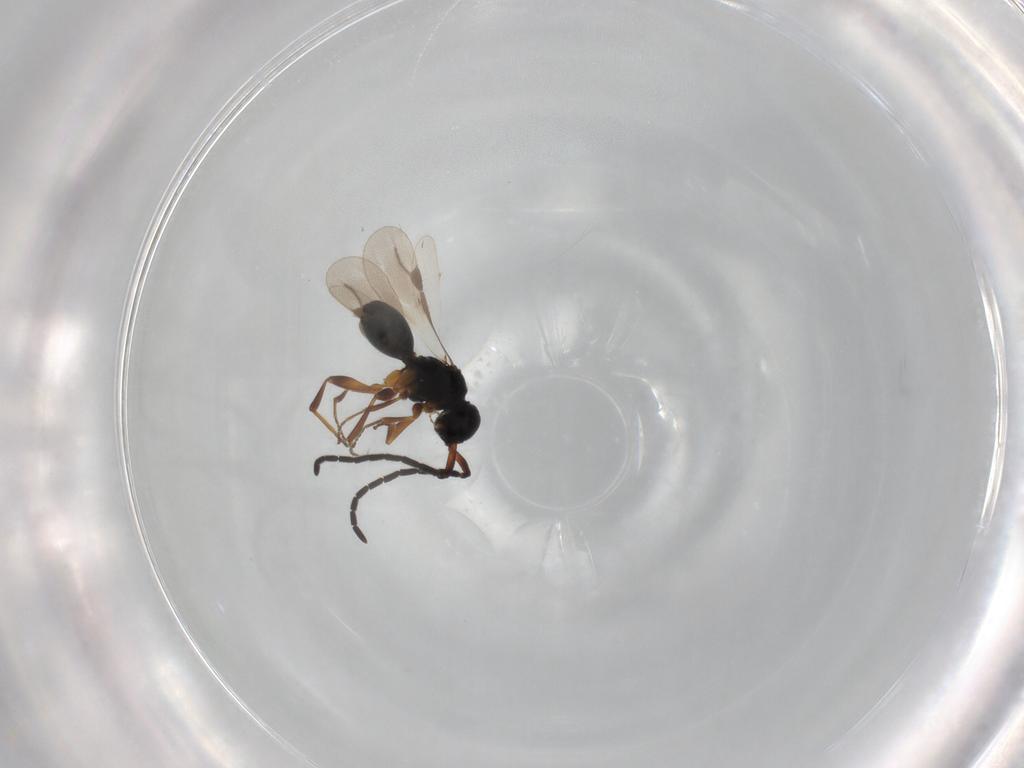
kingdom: Animalia
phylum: Arthropoda
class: Insecta
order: Hymenoptera
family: Megaspilidae
